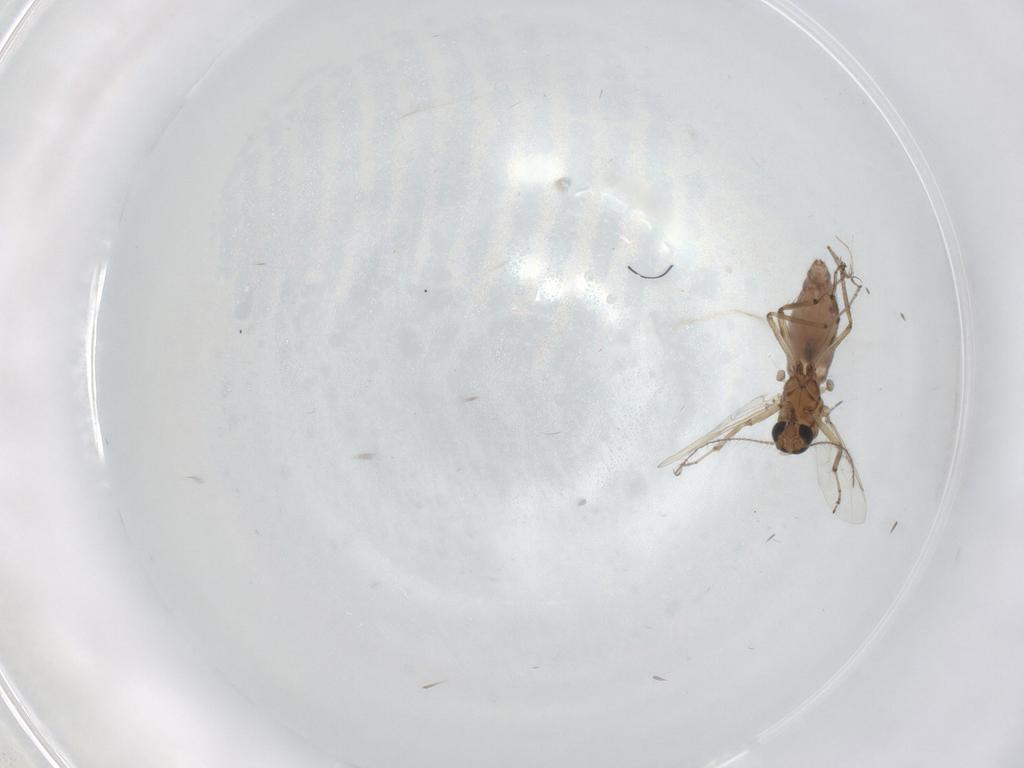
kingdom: Animalia
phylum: Arthropoda
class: Insecta
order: Diptera
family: Ceratopogonidae
